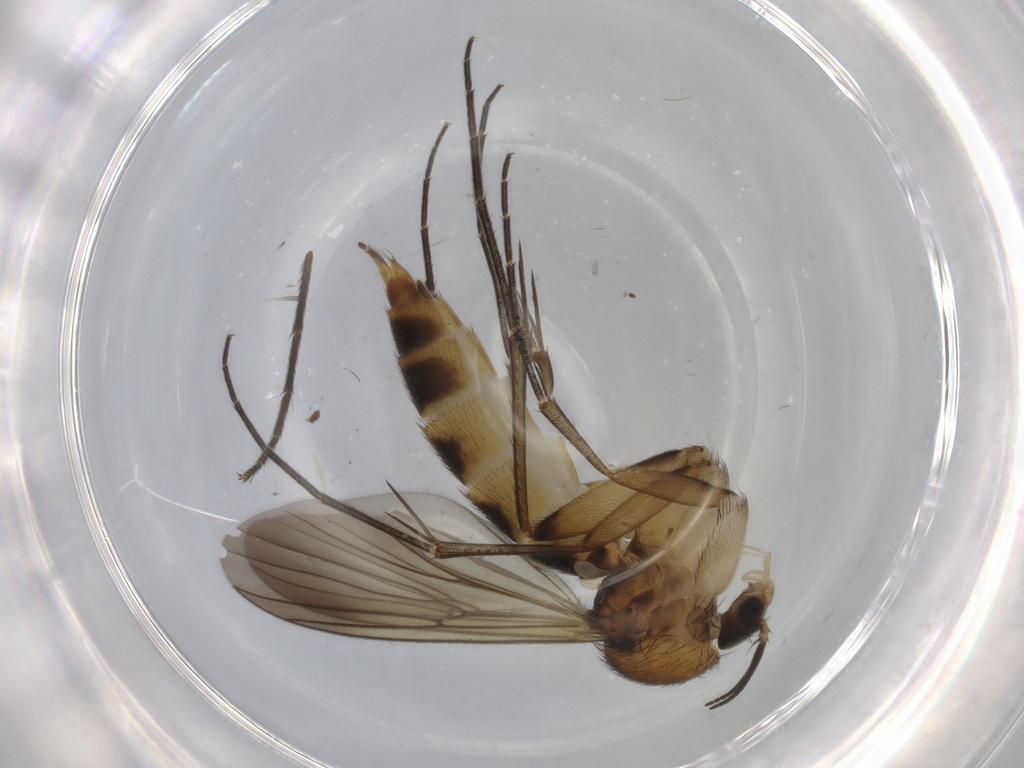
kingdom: Animalia
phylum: Arthropoda
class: Insecta
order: Diptera
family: Mycetophilidae
